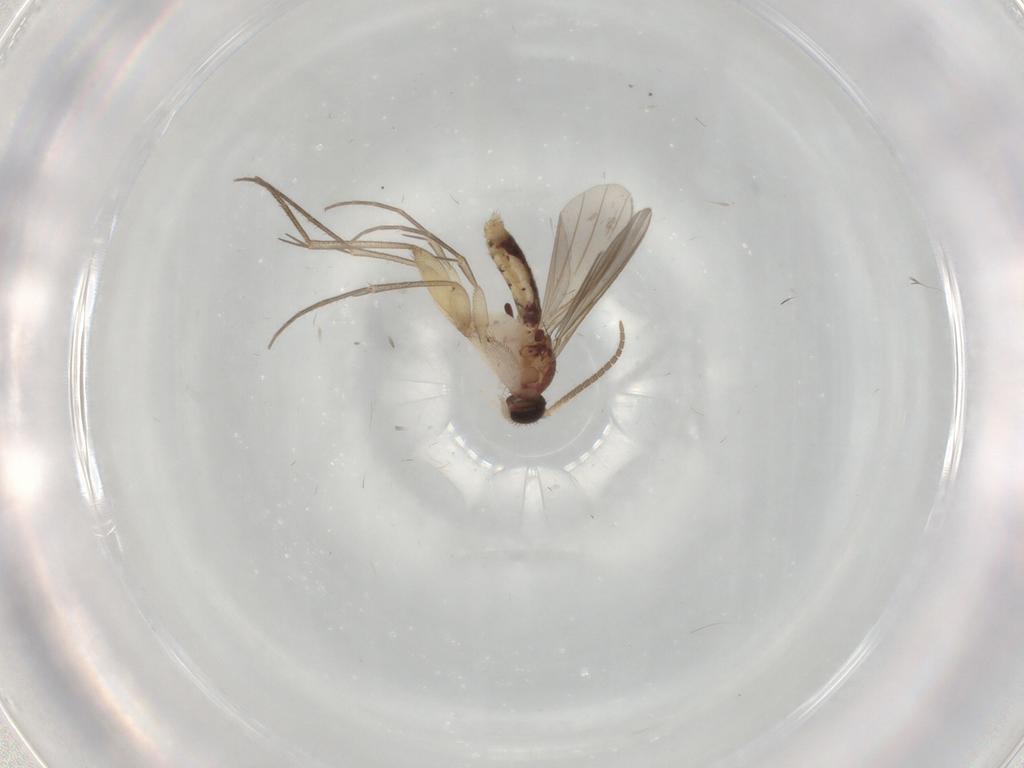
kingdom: Animalia
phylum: Arthropoda
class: Insecta
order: Diptera
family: Mycetophilidae
